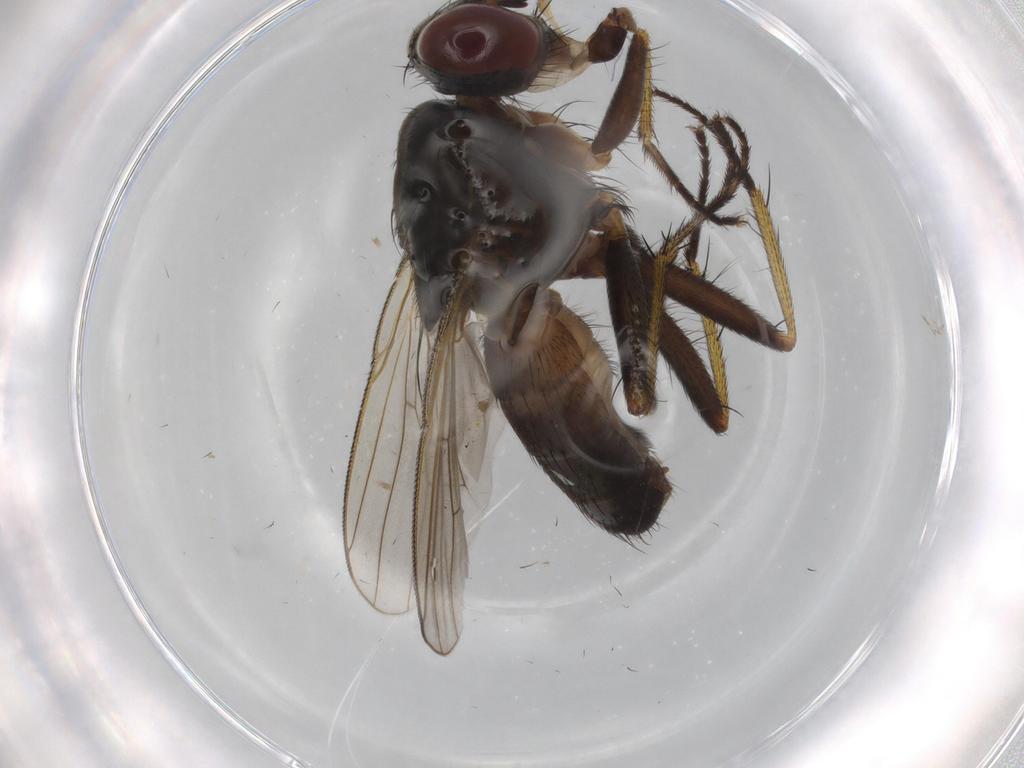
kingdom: Animalia
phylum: Arthropoda
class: Insecta
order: Diptera
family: Muscidae
